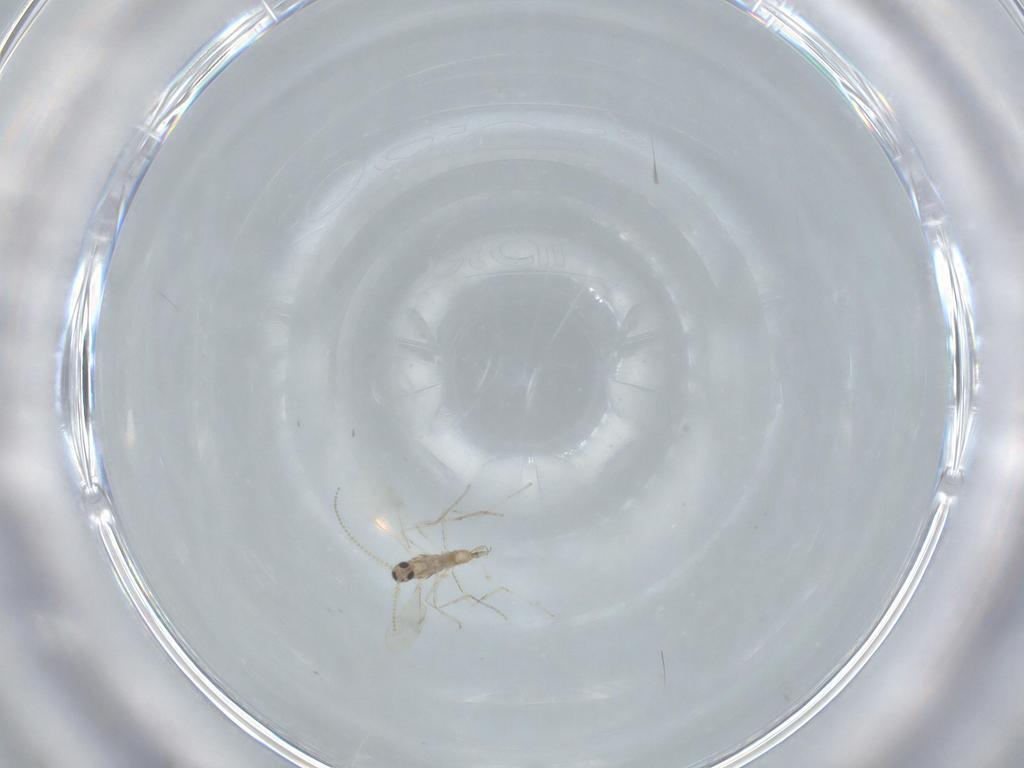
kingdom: Animalia
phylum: Arthropoda
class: Insecta
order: Diptera
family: Cecidomyiidae
